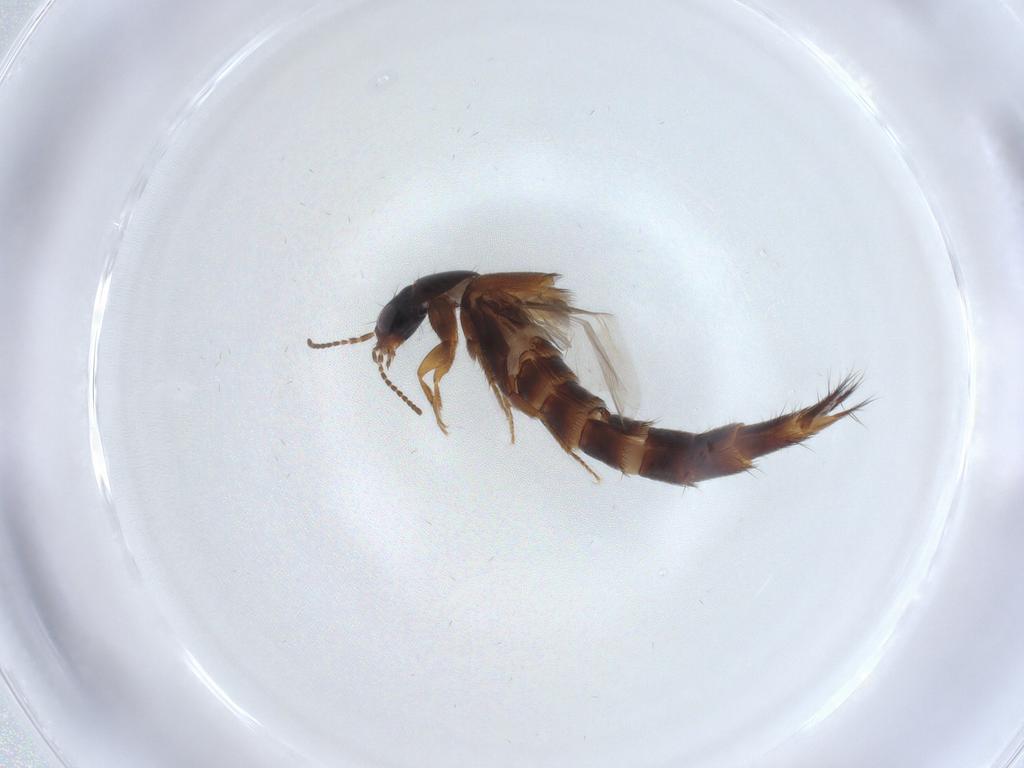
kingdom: Animalia
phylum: Arthropoda
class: Insecta
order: Coleoptera
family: Staphylinidae
